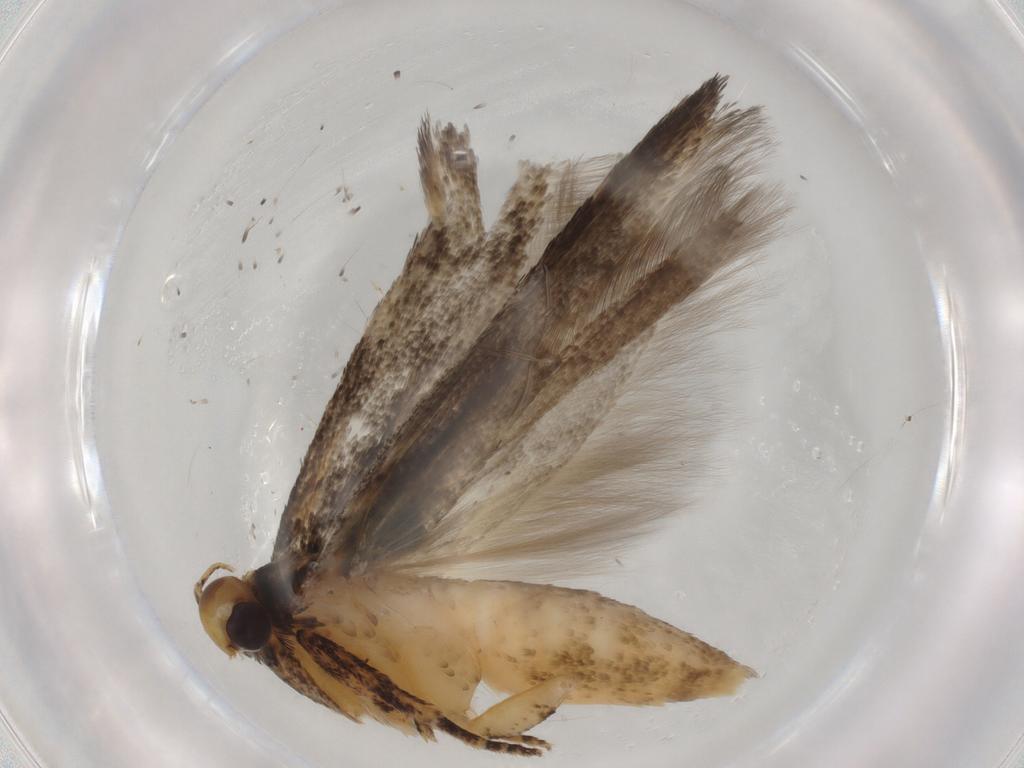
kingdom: Animalia
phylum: Arthropoda
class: Insecta
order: Lepidoptera
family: Gelechiidae
